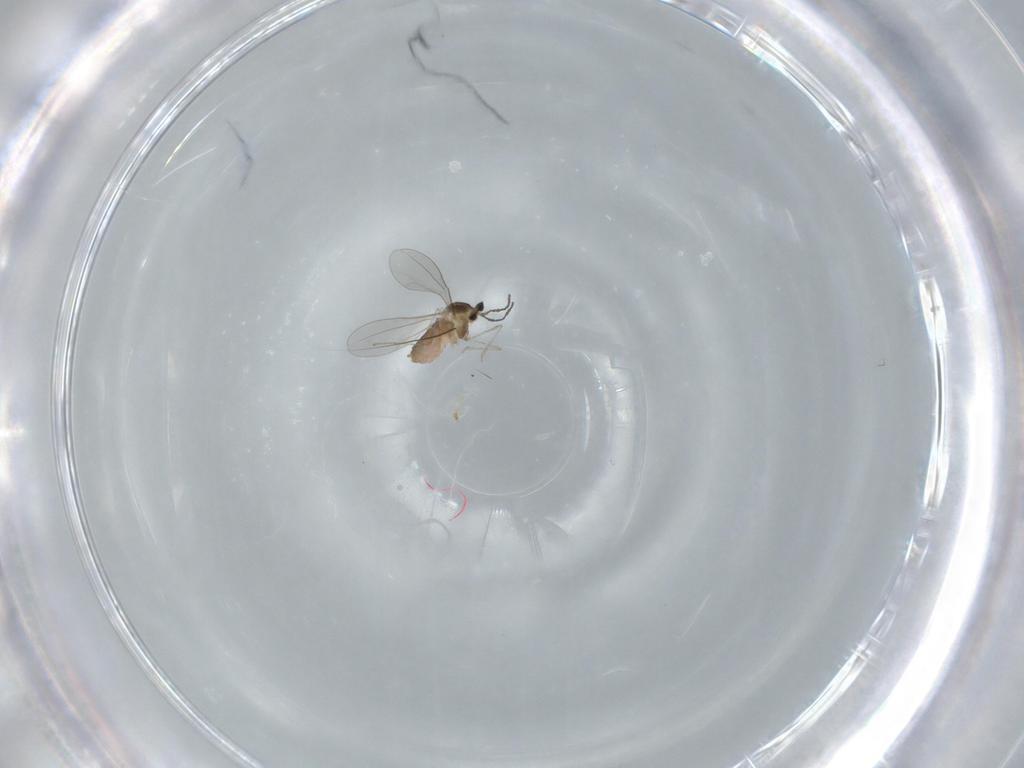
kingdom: Animalia
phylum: Arthropoda
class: Insecta
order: Diptera
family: Cecidomyiidae
